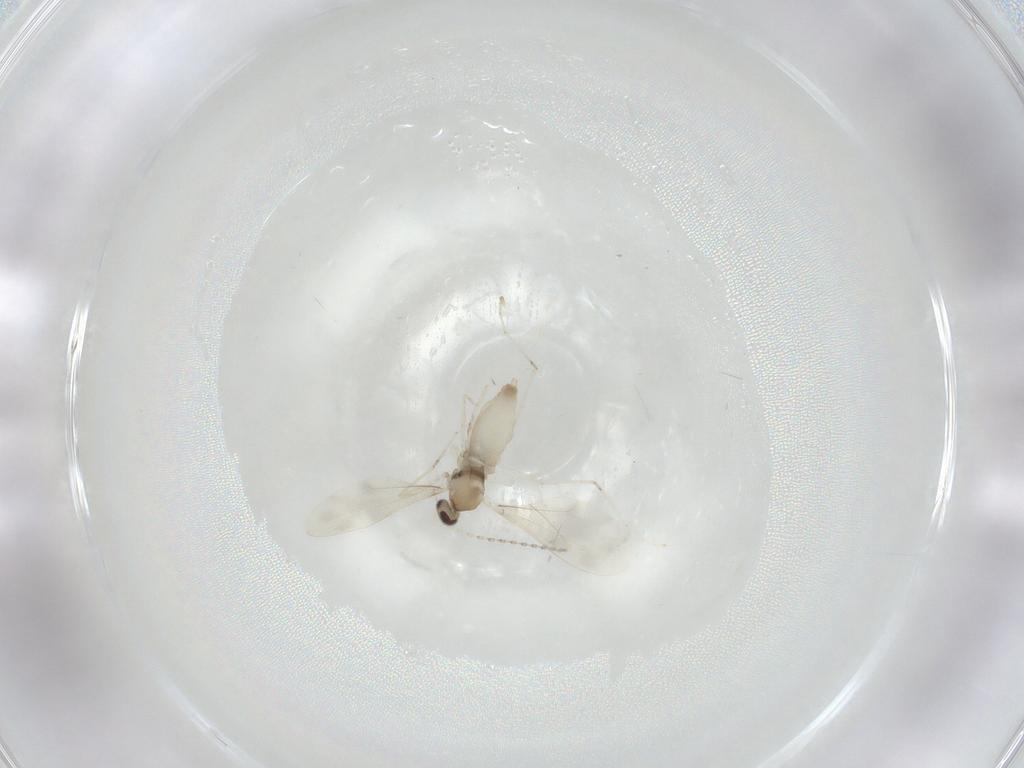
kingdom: Animalia
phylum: Arthropoda
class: Insecta
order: Diptera
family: Cecidomyiidae
